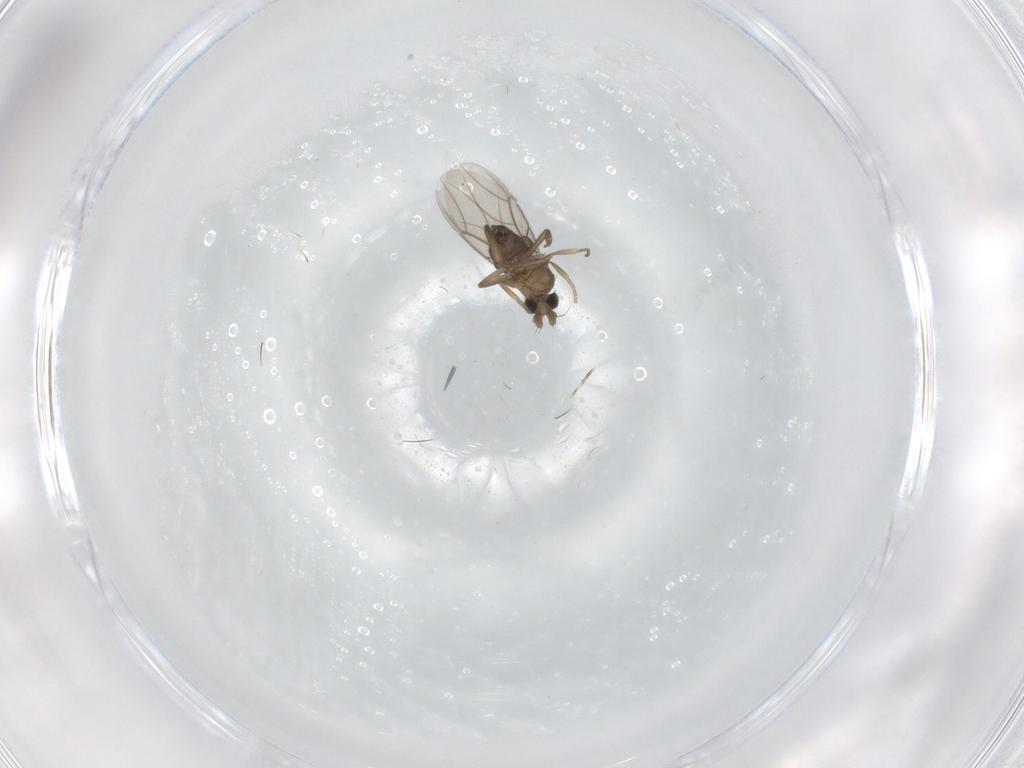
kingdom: Animalia
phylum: Arthropoda
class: Insecta
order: Diptera
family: Phoridae
